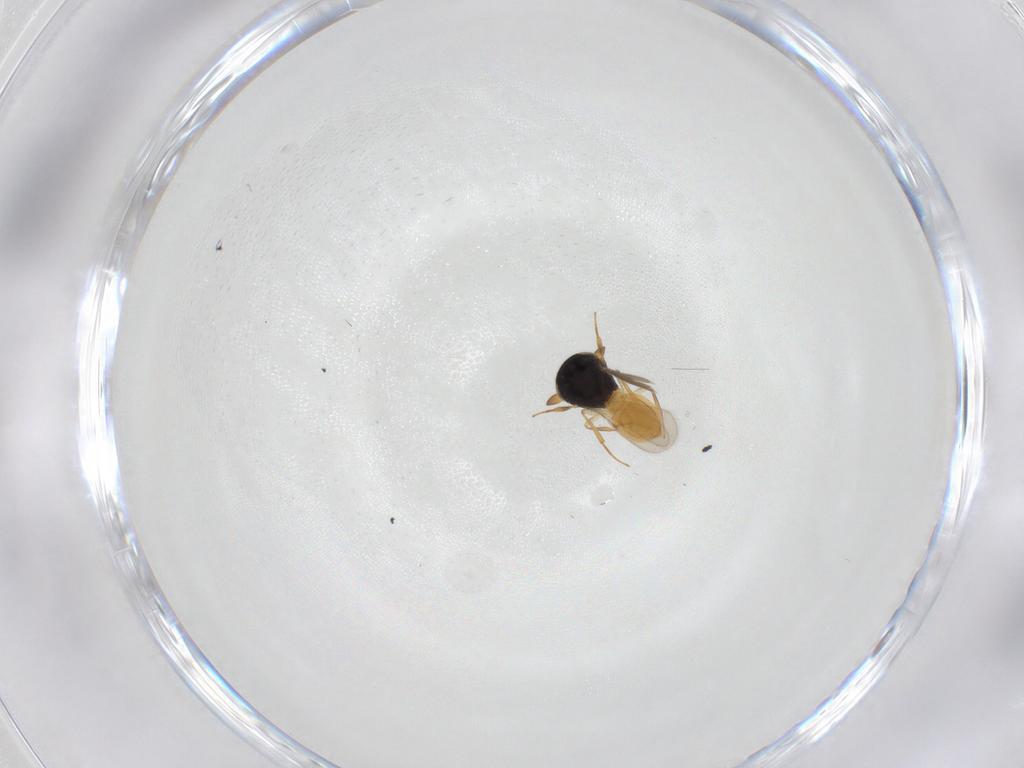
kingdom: Animalia
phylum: Arthropoda
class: Insecta
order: Hymenoptera
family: Scelionidae
